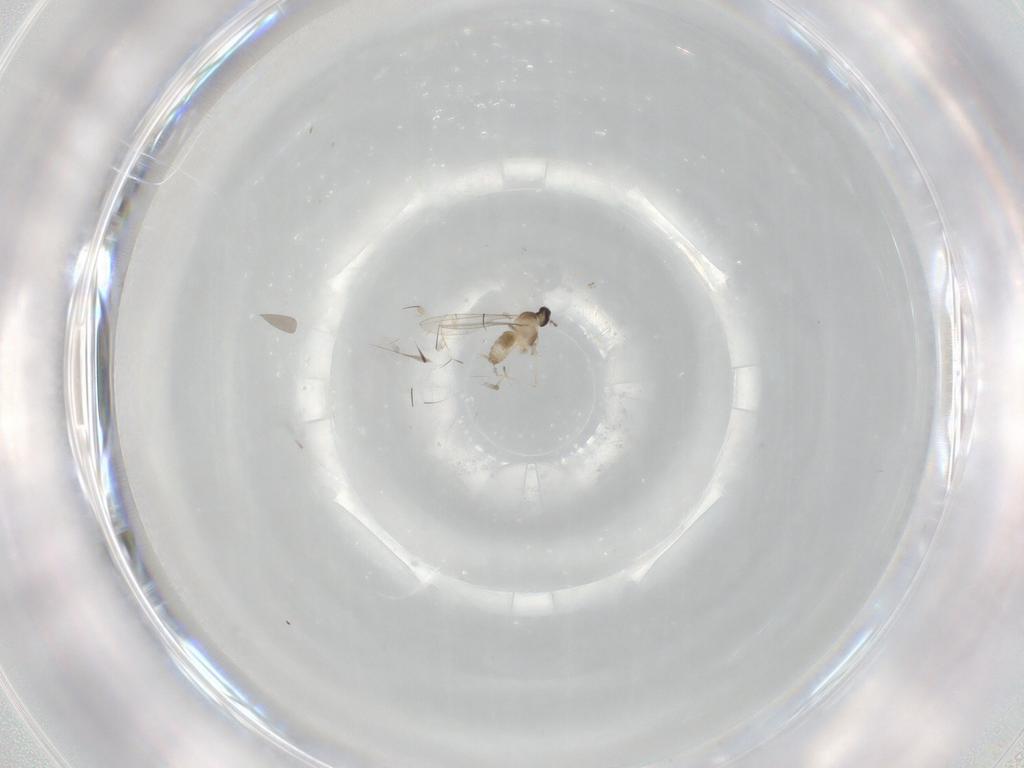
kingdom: Animalia
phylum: Arthropoda
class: Insecta
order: Diptera
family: Cecidomyiidae
